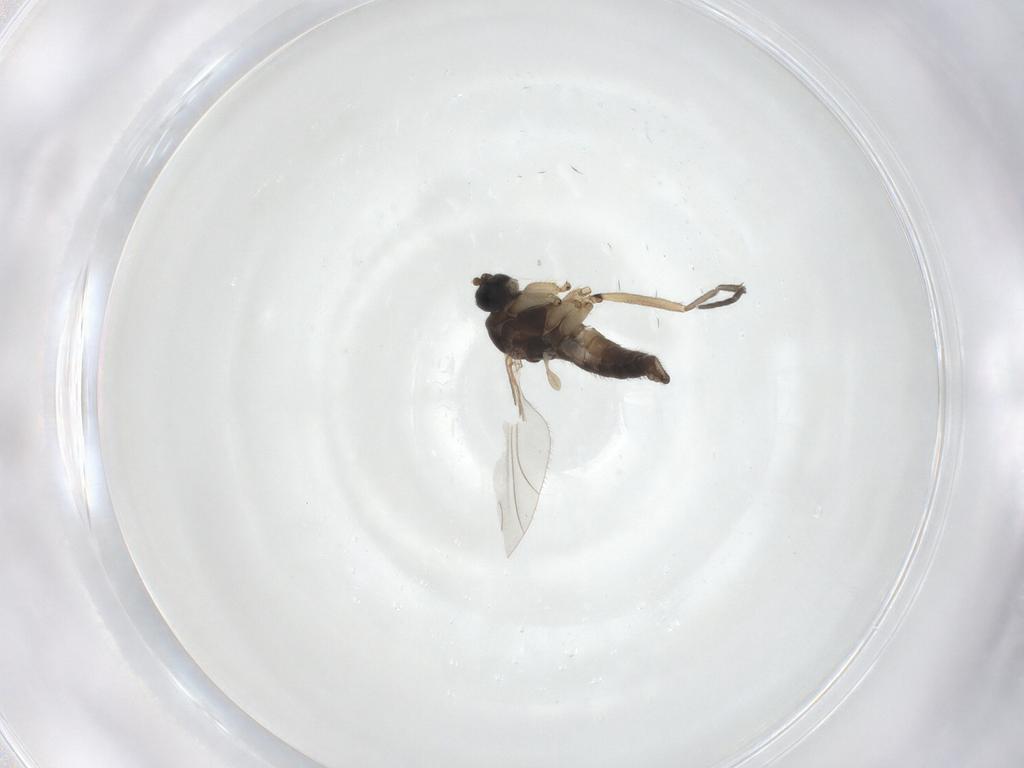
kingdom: Animalia
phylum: Arthropoda
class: Insecta
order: Diptera
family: Sciaridae
